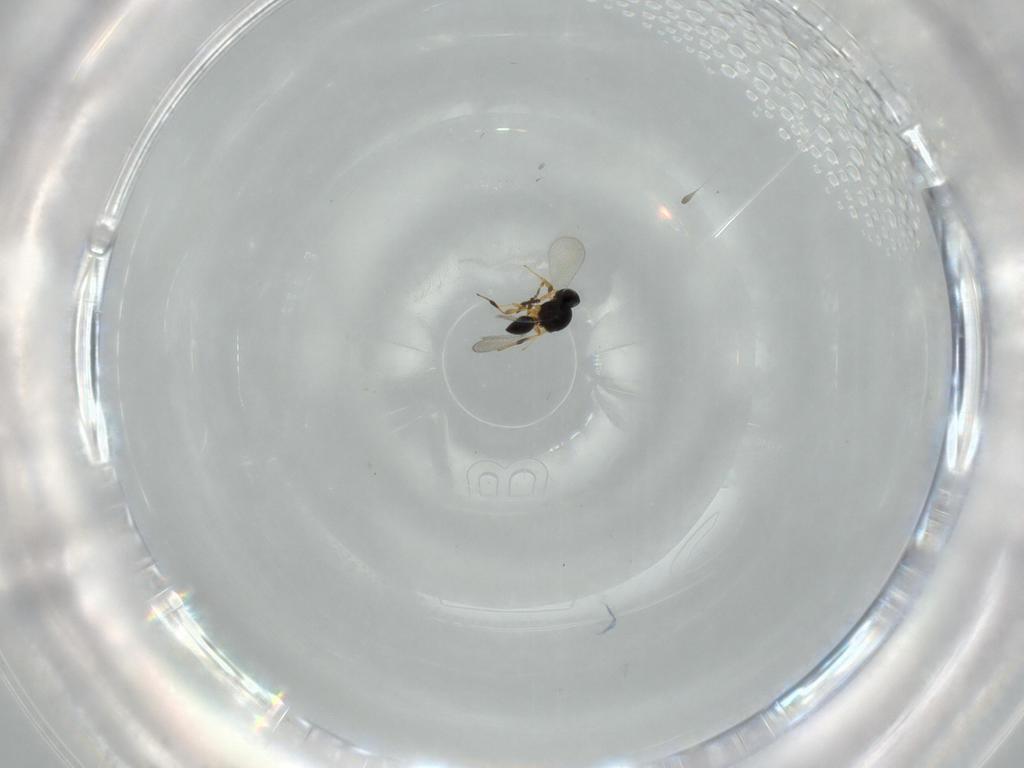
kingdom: Animalia
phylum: Arthropoda
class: Insecta
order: Hymenoptera
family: Platygastridae
